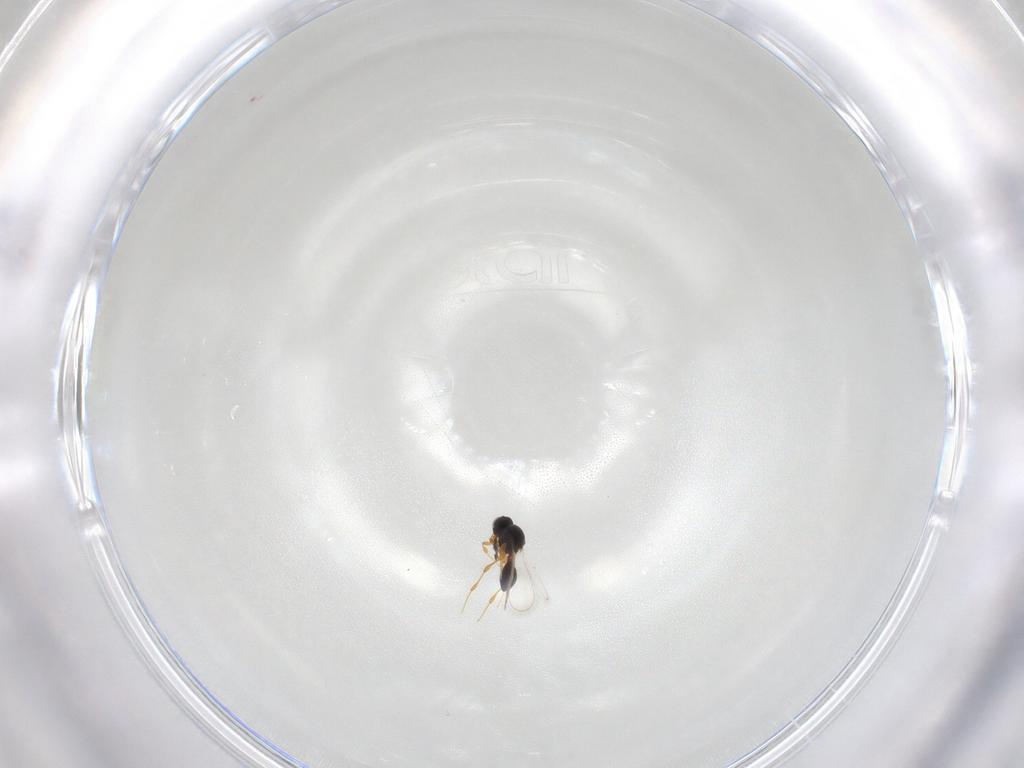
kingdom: Animalia
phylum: Arthropoda
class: Insecta
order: Hymenoptera
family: Platygastridae
